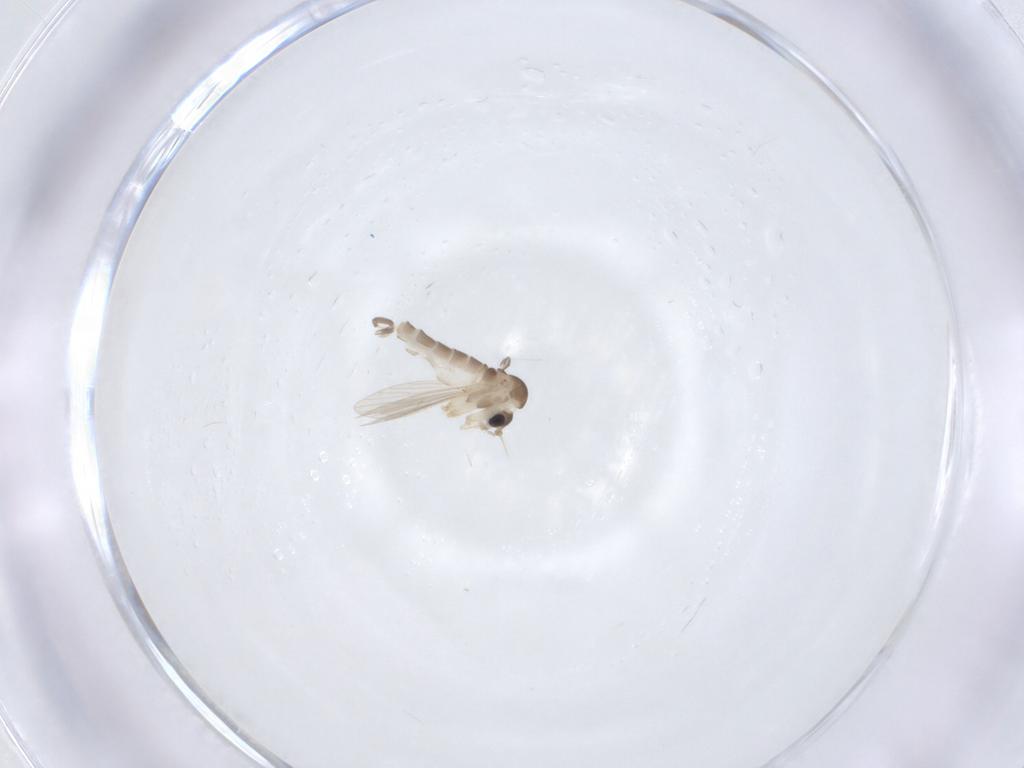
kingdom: Animalia
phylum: Arthropoda
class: Insecta
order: Diptera
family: Psychodidae
